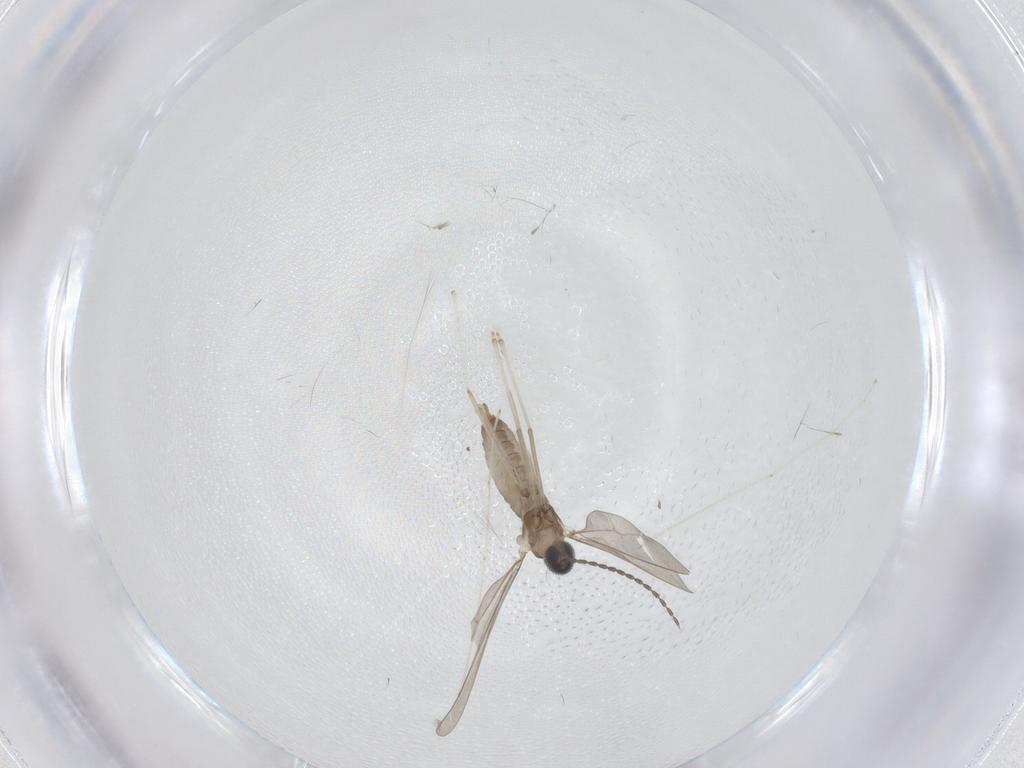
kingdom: Animalia
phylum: Arthropoda
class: Insecta
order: Diptera
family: Cecidomyiidae
